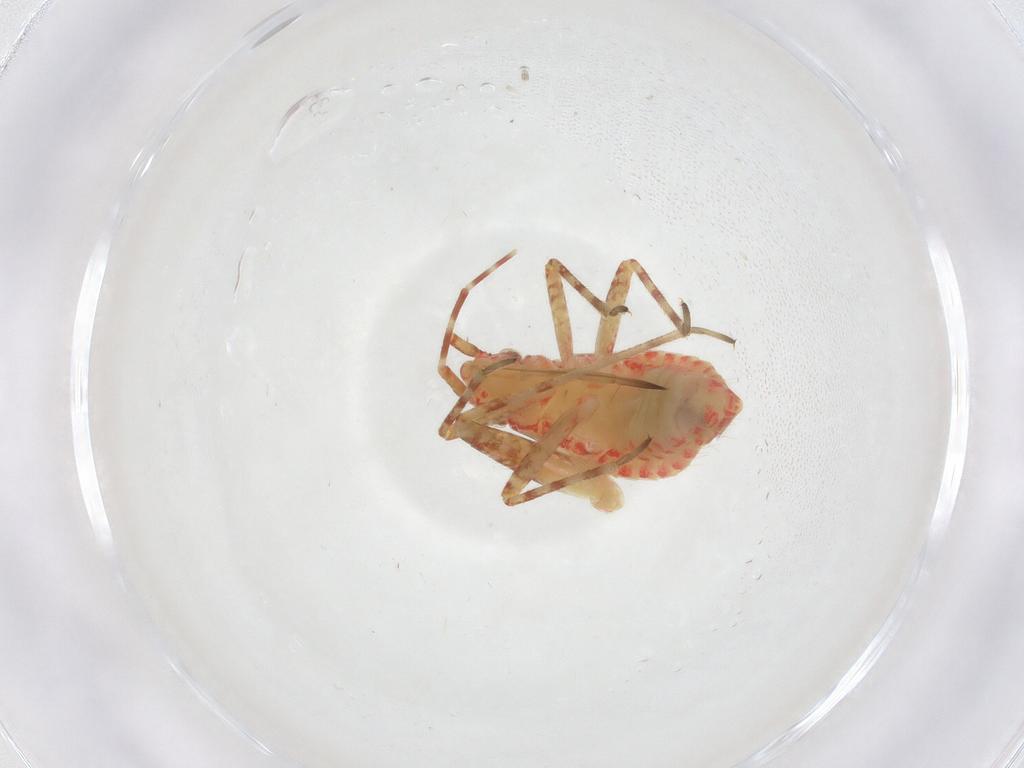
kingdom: Animalia
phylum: Arthropoda
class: Insecta
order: Hemiptera
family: Miridae
